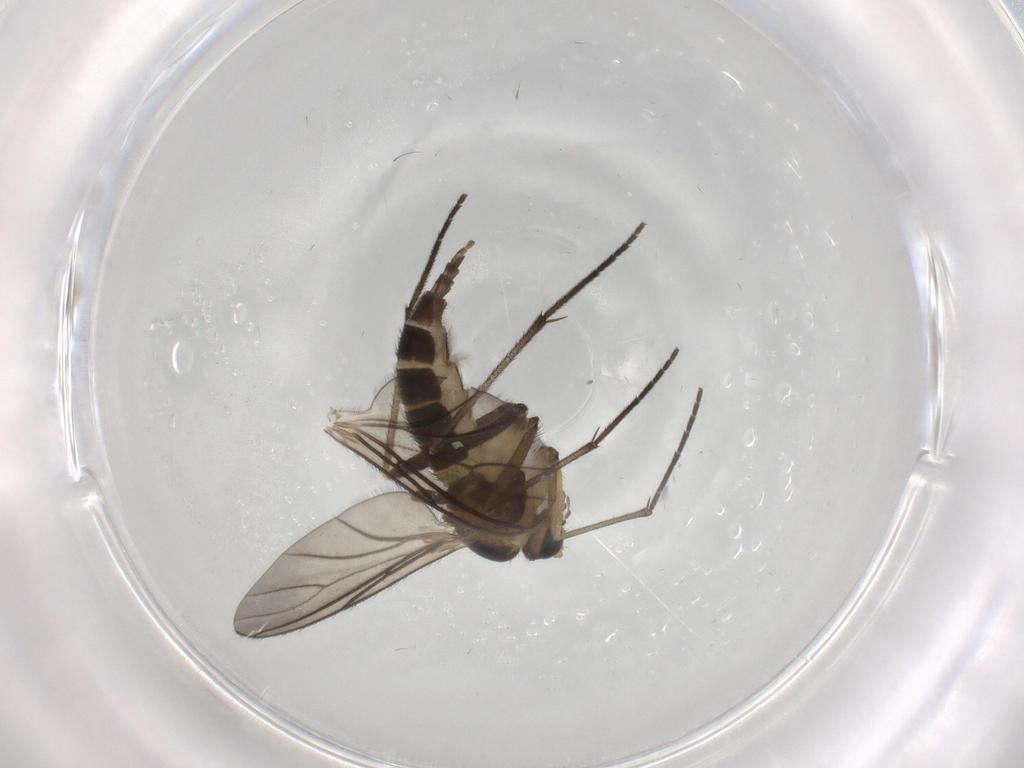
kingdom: Animalia
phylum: Arthropoda
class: Insecta
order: Diptera
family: Sciaridae
